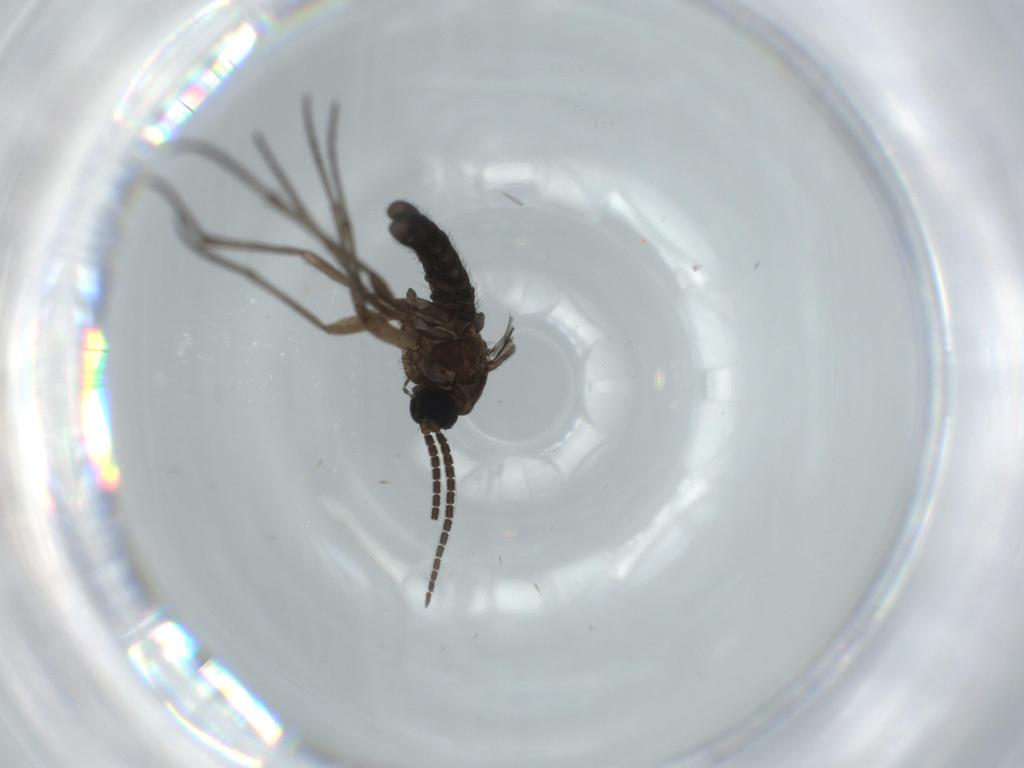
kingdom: Animalia
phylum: Arthropoda
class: Insecta
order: Diptera
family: Sciaridae
